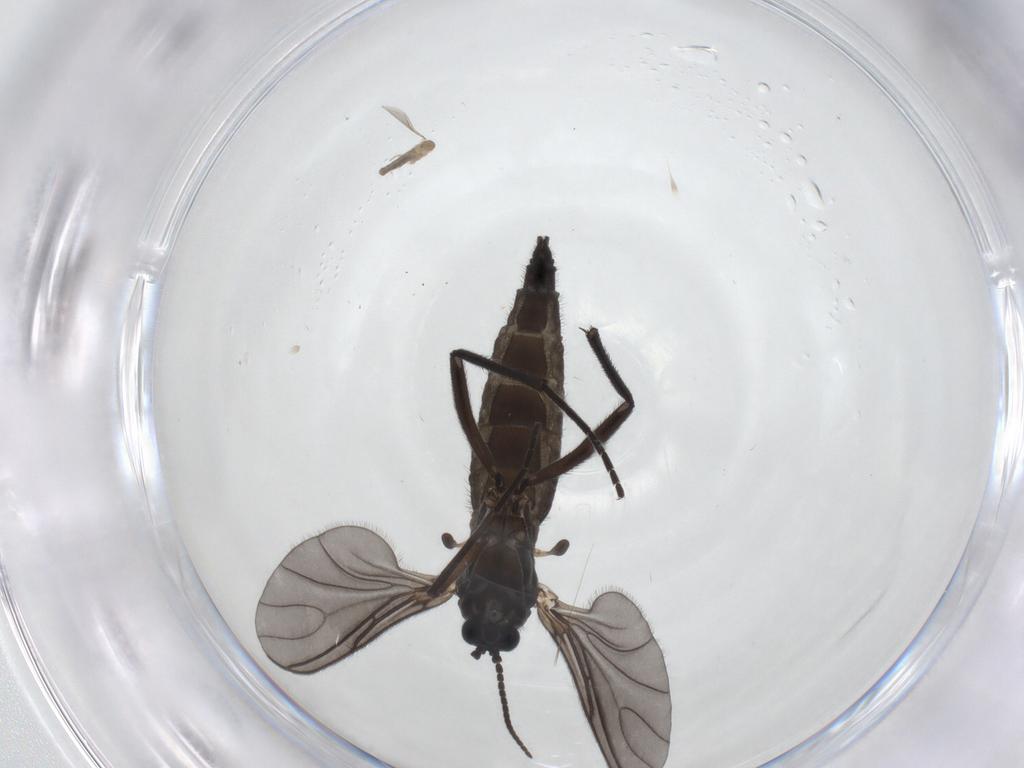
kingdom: Animalia
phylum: Arthropoda
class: Insecta
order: Diptera
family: Sciaridae
